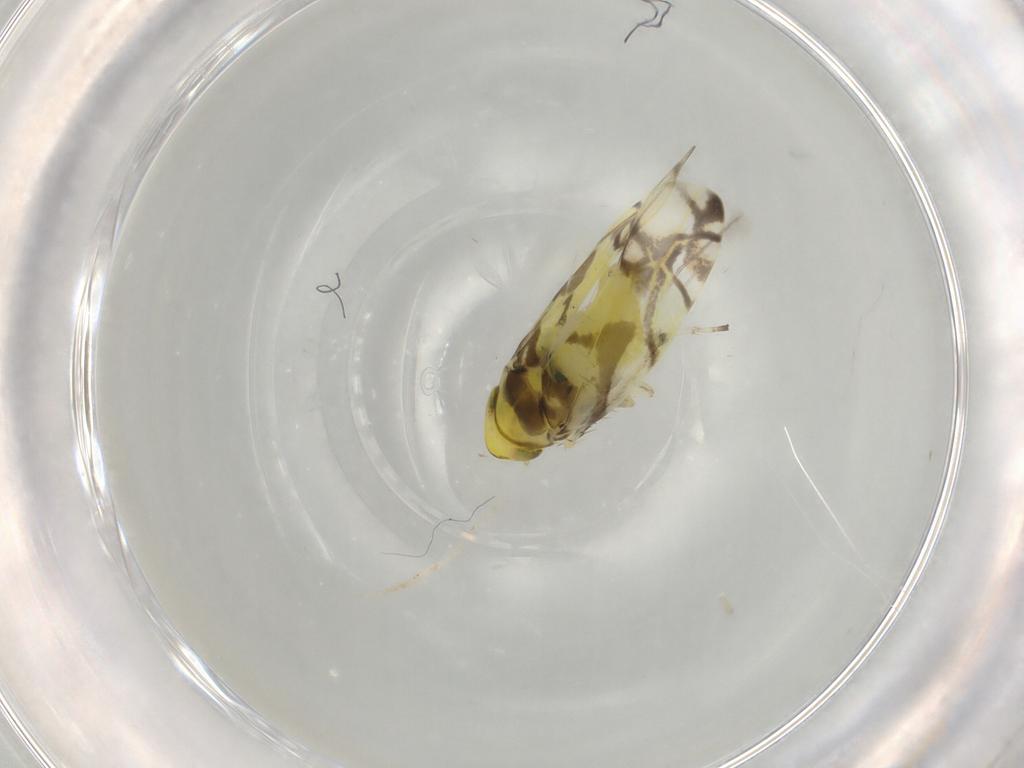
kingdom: Animalia
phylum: Arthropoda
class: Insecta
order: Hemiptera
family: Cicadellidae
